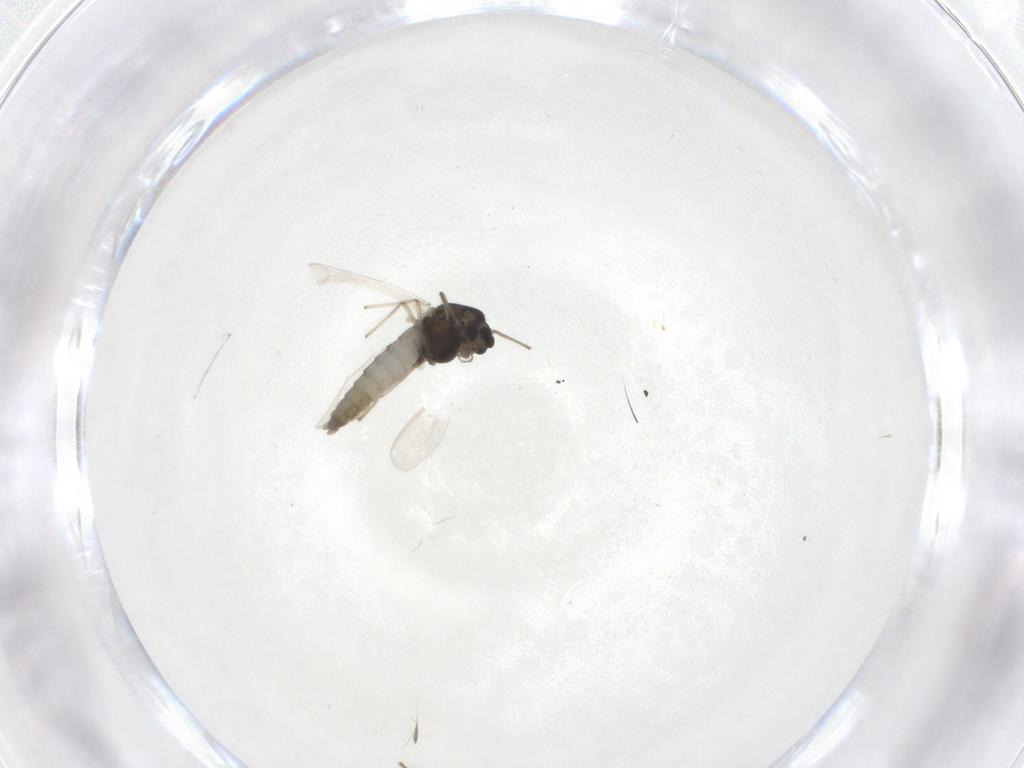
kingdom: Animalia
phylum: Arthropoda
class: Insecta
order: Diptera
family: Chironomidae
